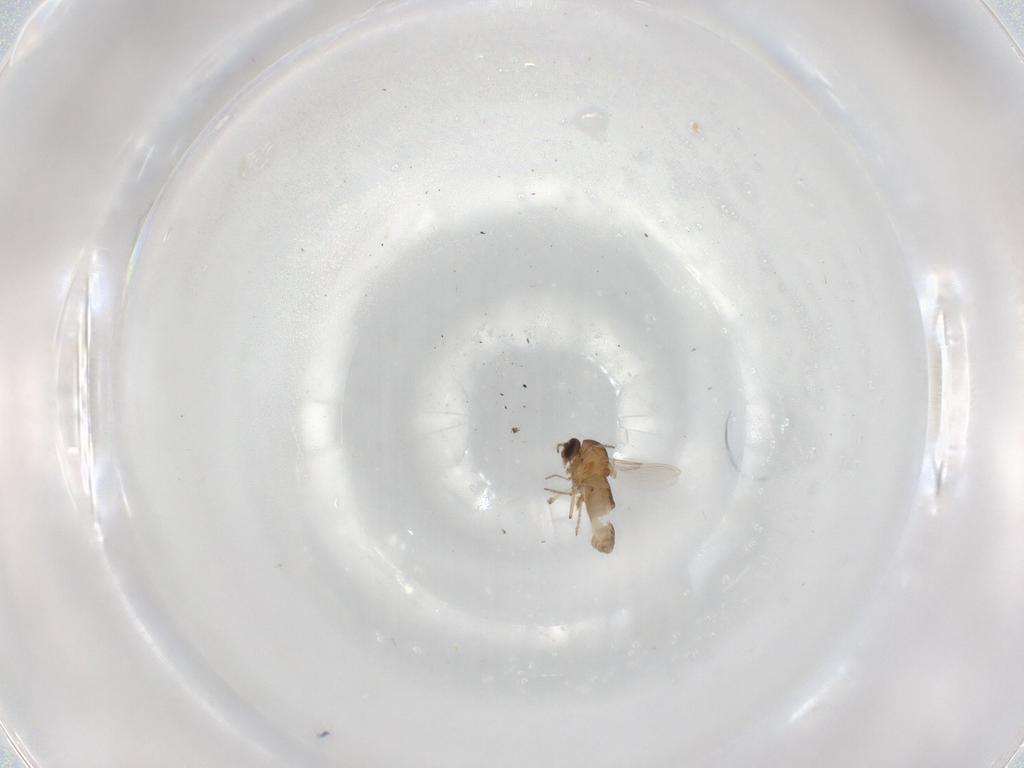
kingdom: Animalia
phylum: Arthropoda
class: Insecta
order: Diptera
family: Ceratopogonidae
